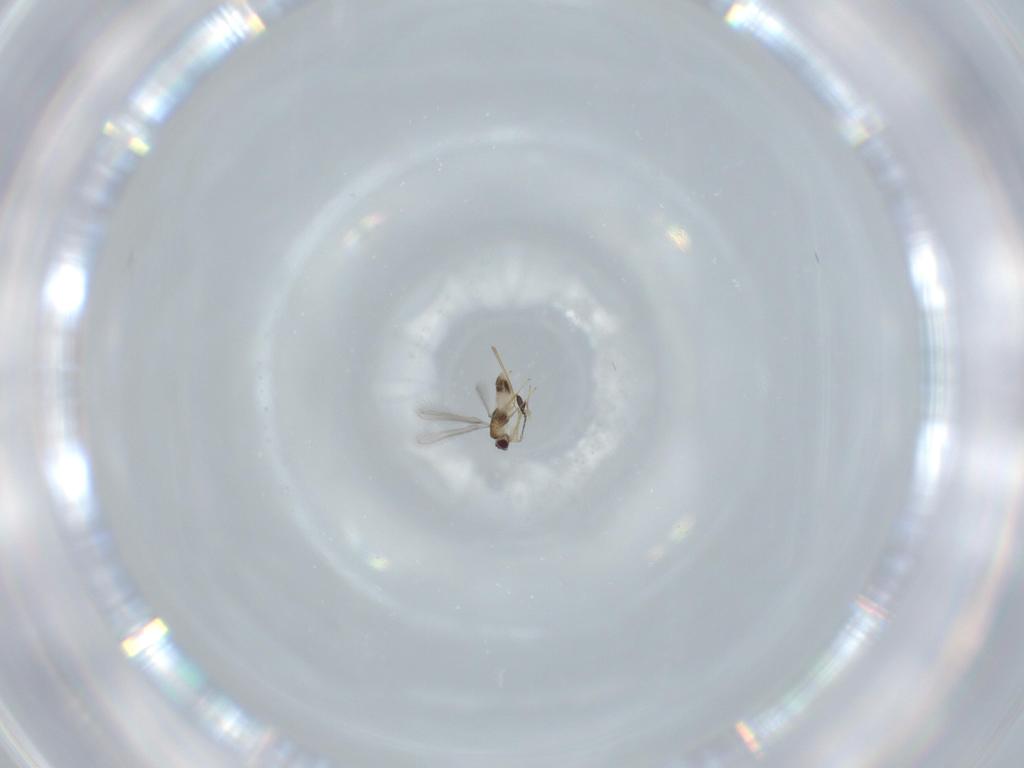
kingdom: Animalia
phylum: Arthropoda
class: Insecta
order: Hymenoptera
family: Mymaridae
